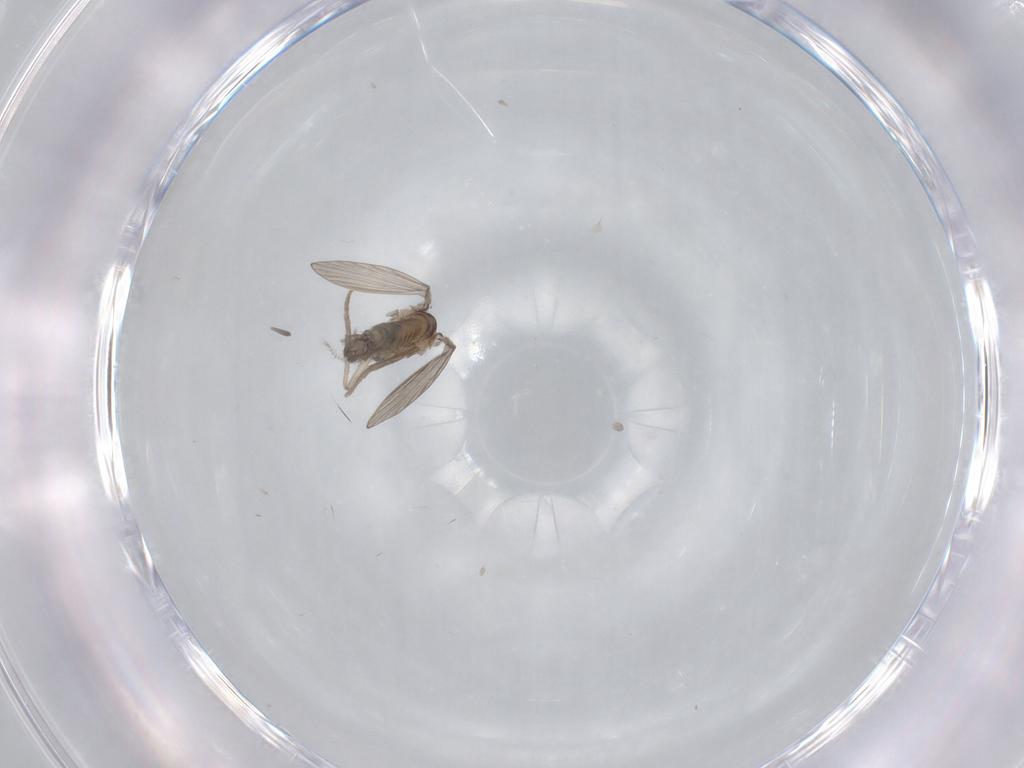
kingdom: Animalia
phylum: Arthropoda
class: Insecta
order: Diptera
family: Psychodidae
